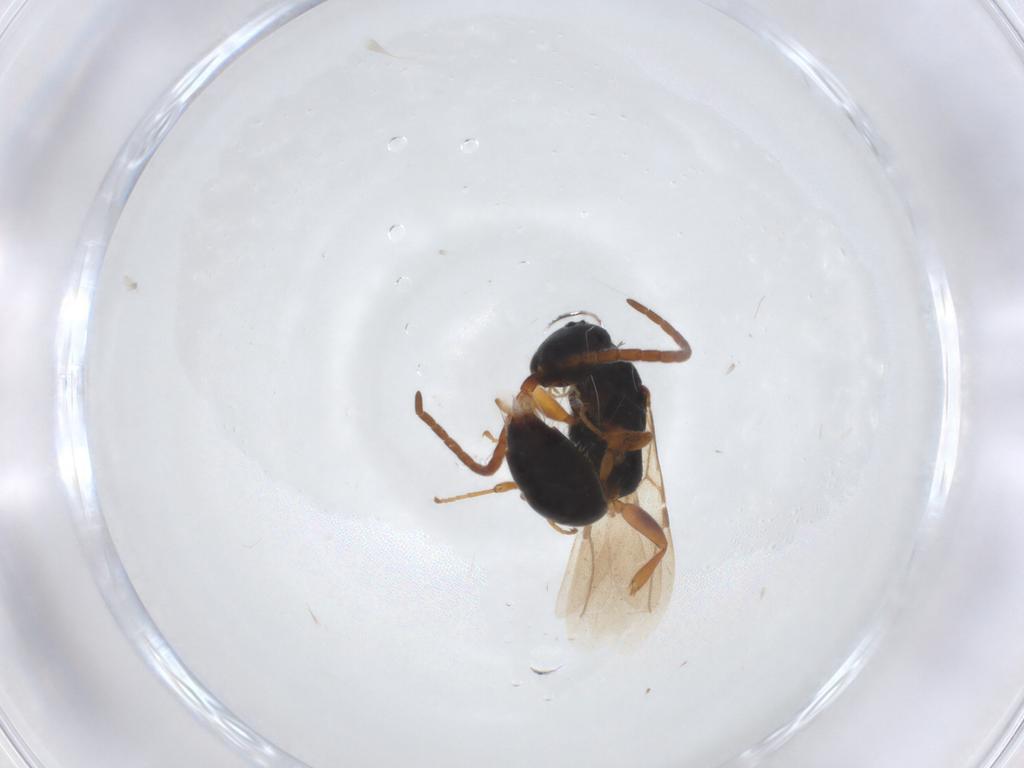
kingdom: Animalia
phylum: Arthropoda
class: Insecta
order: Hymenoptera
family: Bethylidae
